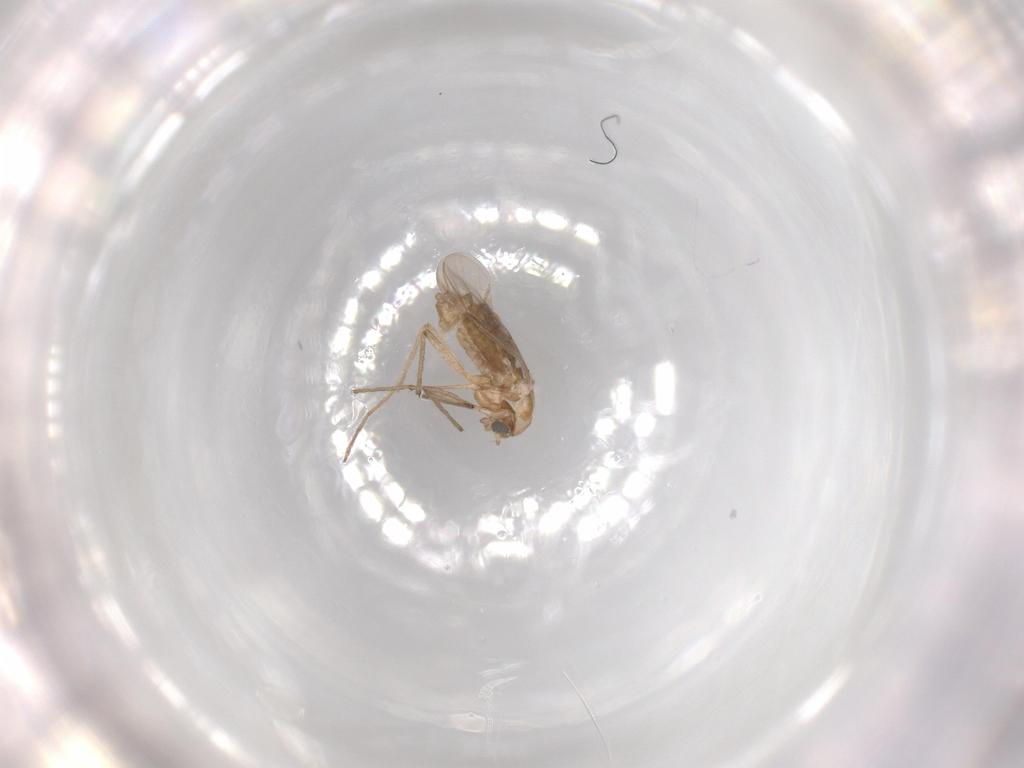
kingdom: Animalia
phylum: Arthropoda
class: Insecta
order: Diptera
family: Chironomidae
